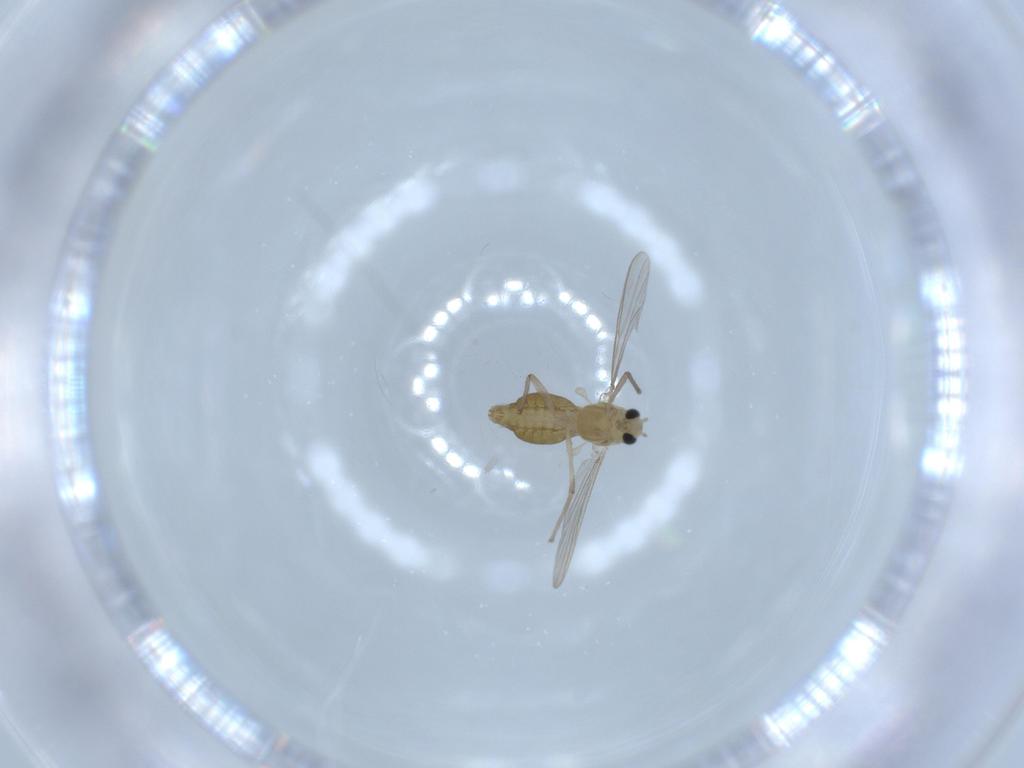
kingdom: Animalia
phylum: Arthropoda
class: Insecta
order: Diptera
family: Chironomidae
